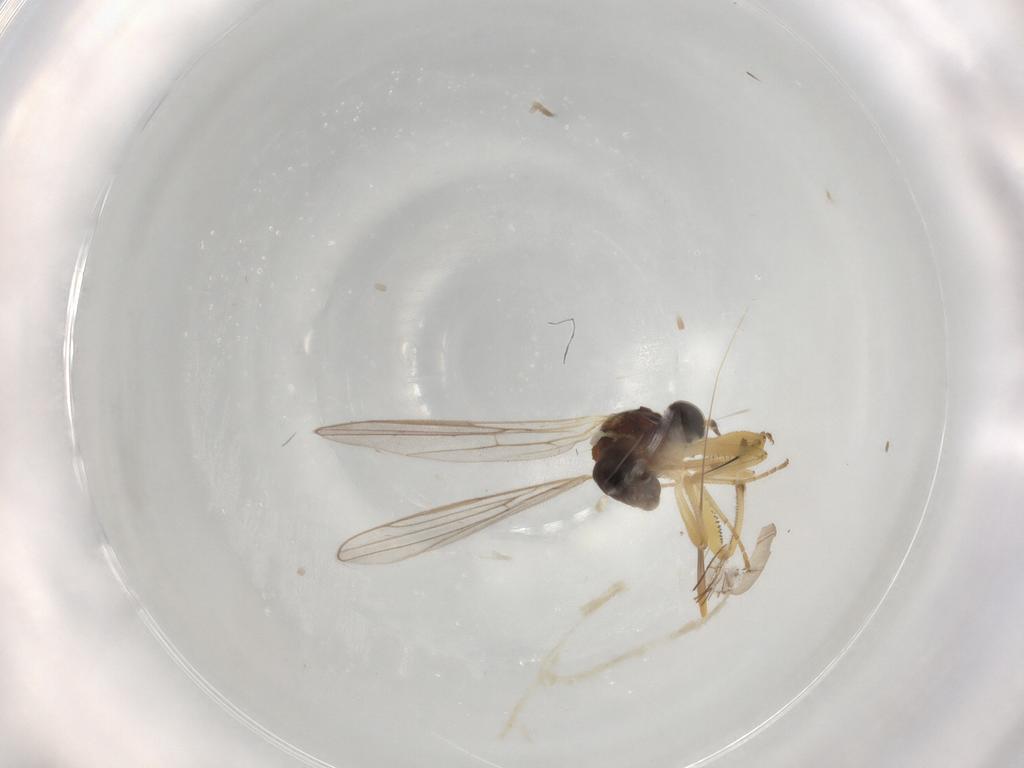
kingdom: Animalia
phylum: Arthropoda
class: Insecta
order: Diptera
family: Hybotidae
